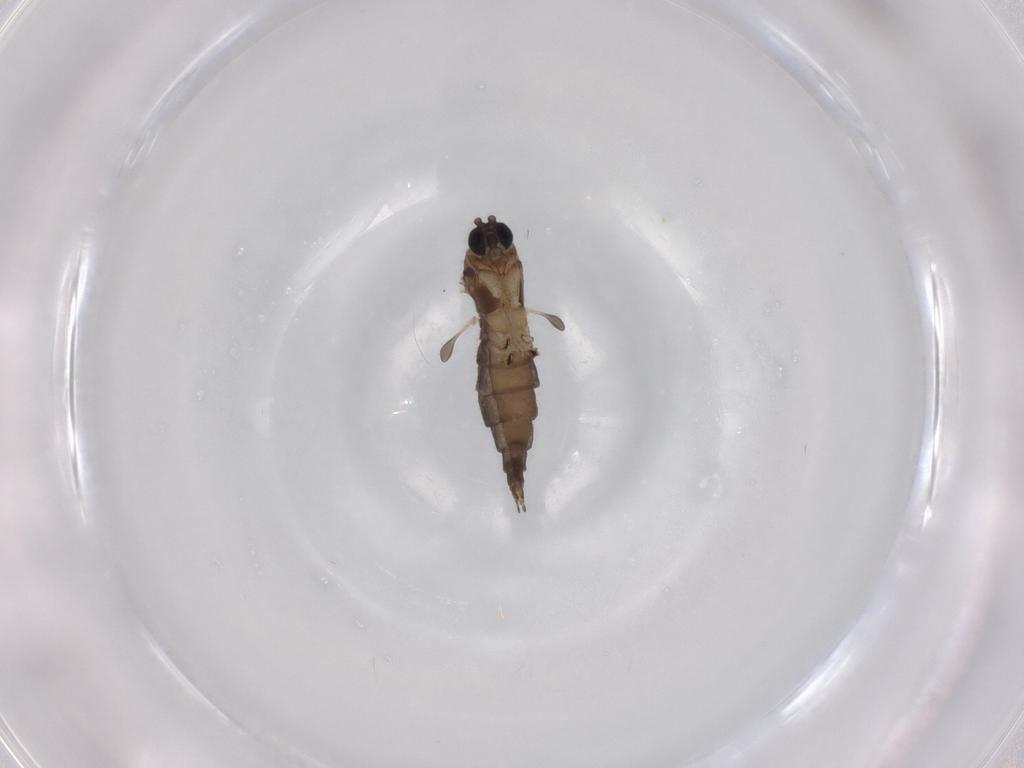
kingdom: Animalia
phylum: Arthropoda
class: Insecta
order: Diptera
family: Sciaridae
